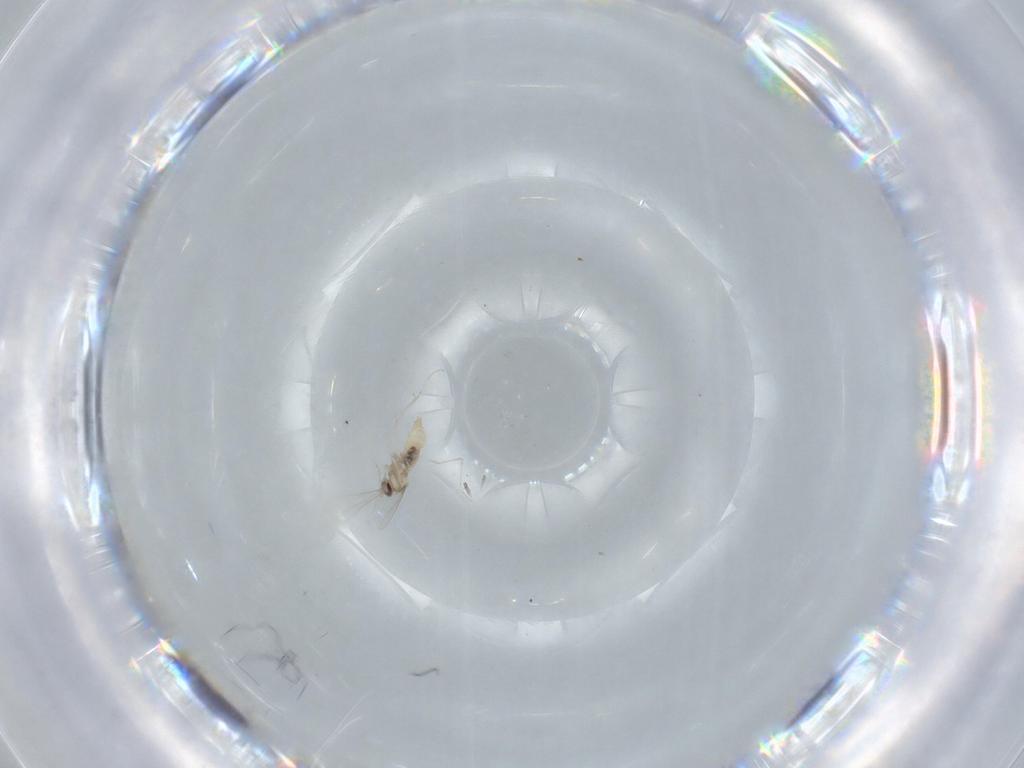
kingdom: Animalia
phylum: Arthropoda
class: Insecta
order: Diptera
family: Cecidomyiidae
